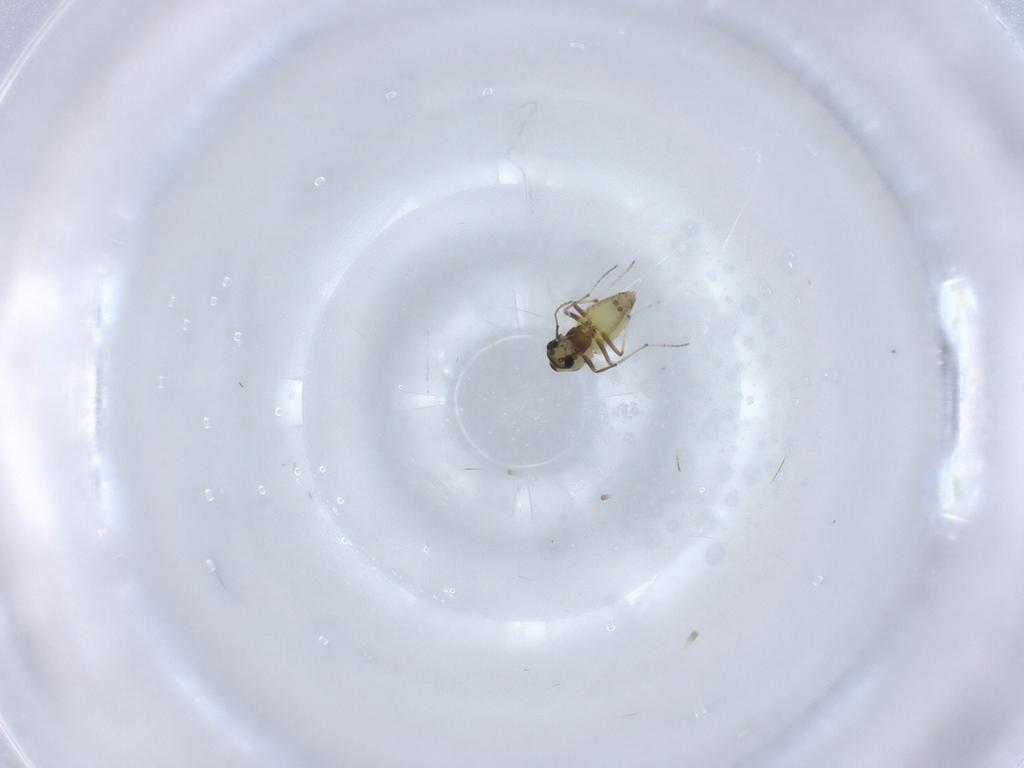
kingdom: Animalia
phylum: Arthropoda
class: Insecta
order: Diptera
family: Chironomidae
